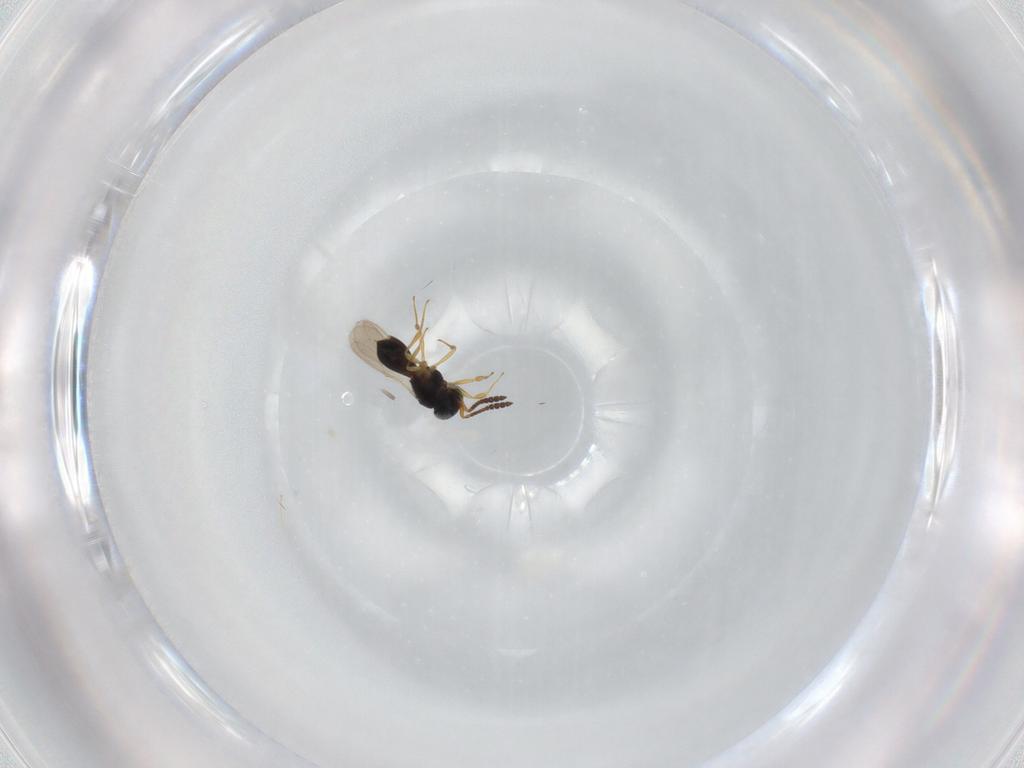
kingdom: Animalia
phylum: Arthropoda
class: Insecta
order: Hymenoptera
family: Scelionidae
